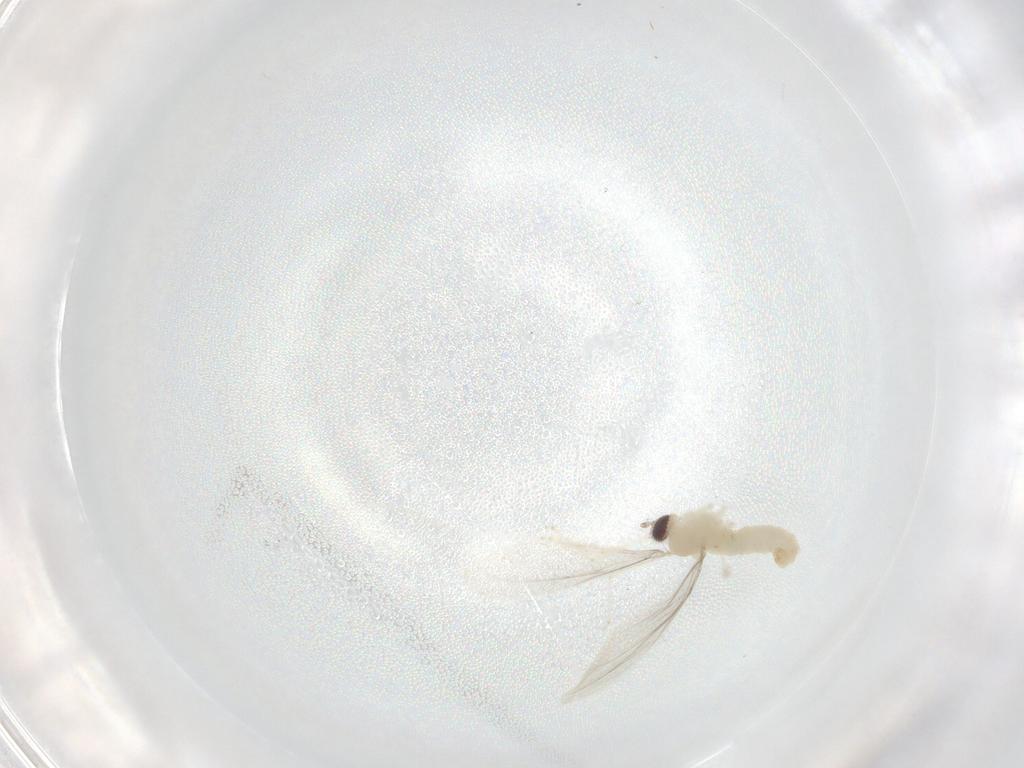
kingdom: Animalia
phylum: Arthropoda
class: Insecta
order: Diptera
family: Cecidomyiidae
